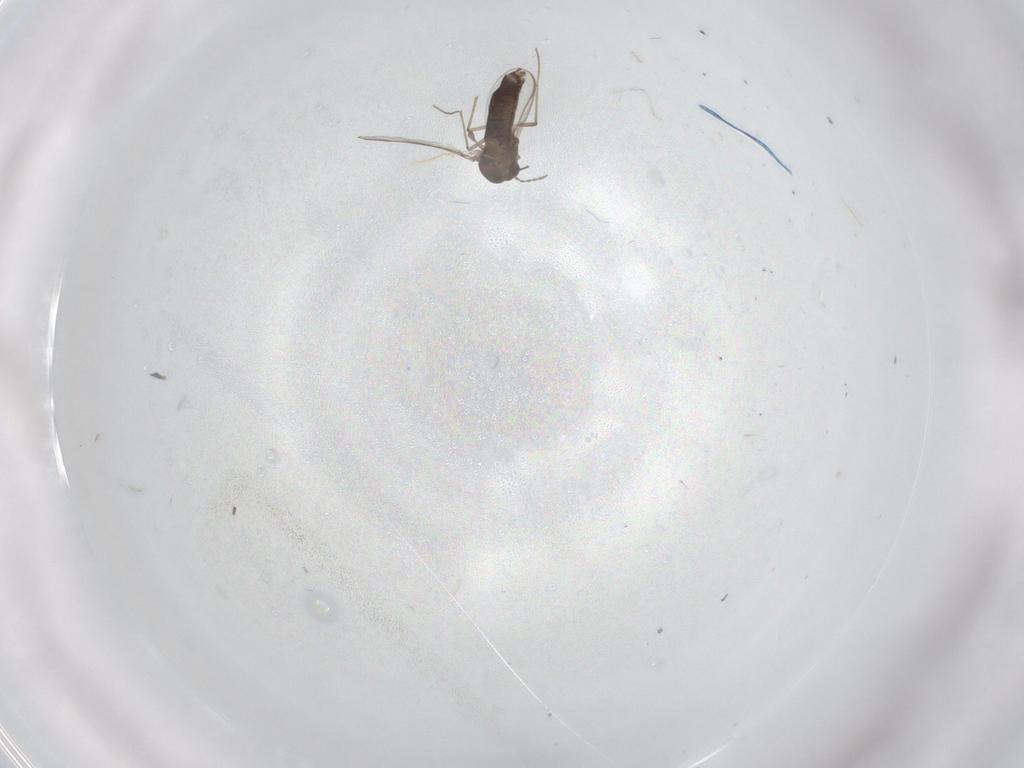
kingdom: Animalia
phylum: Arthropoda
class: Insecta
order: Diptera
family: Chironomidae
